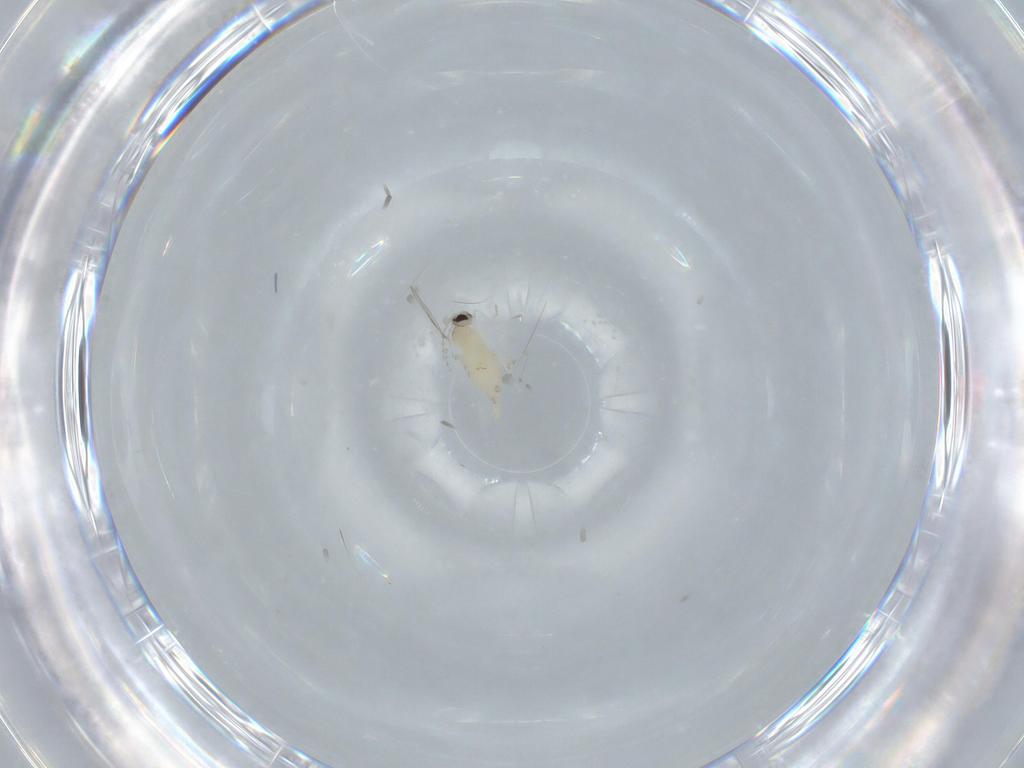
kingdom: Animalia
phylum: Arthropoda
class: Insecta
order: Diptera
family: Cecidomyiidae
